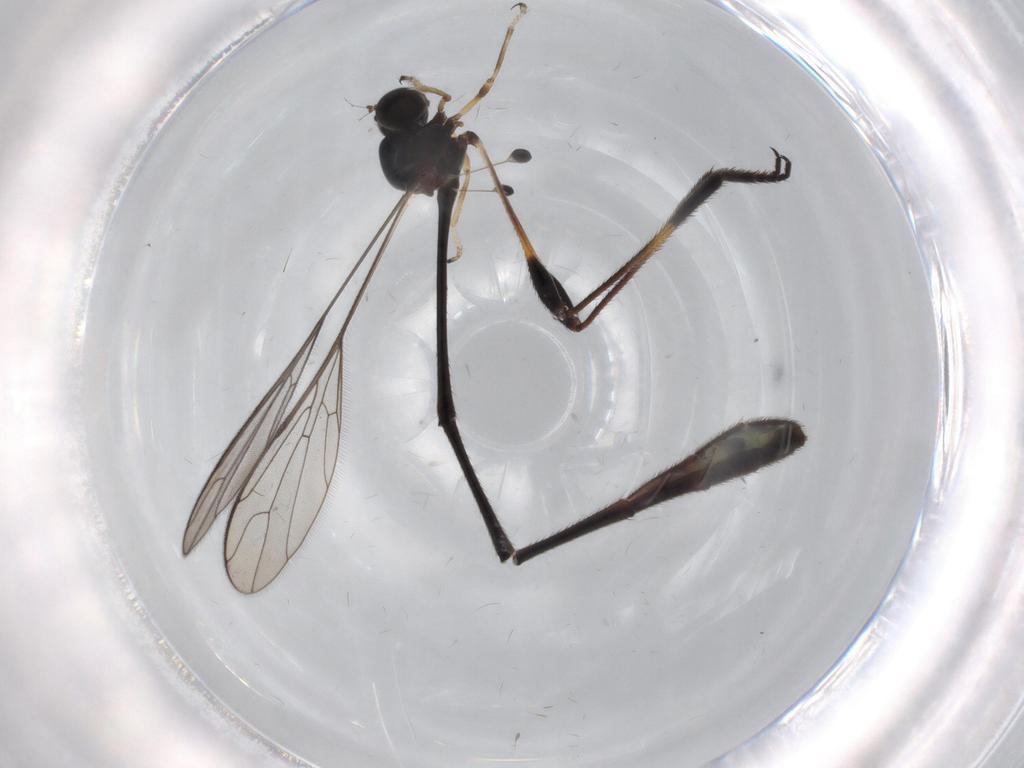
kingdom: Animalia
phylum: Arthropoda
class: Insecta
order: Diptera
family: Asilidae
